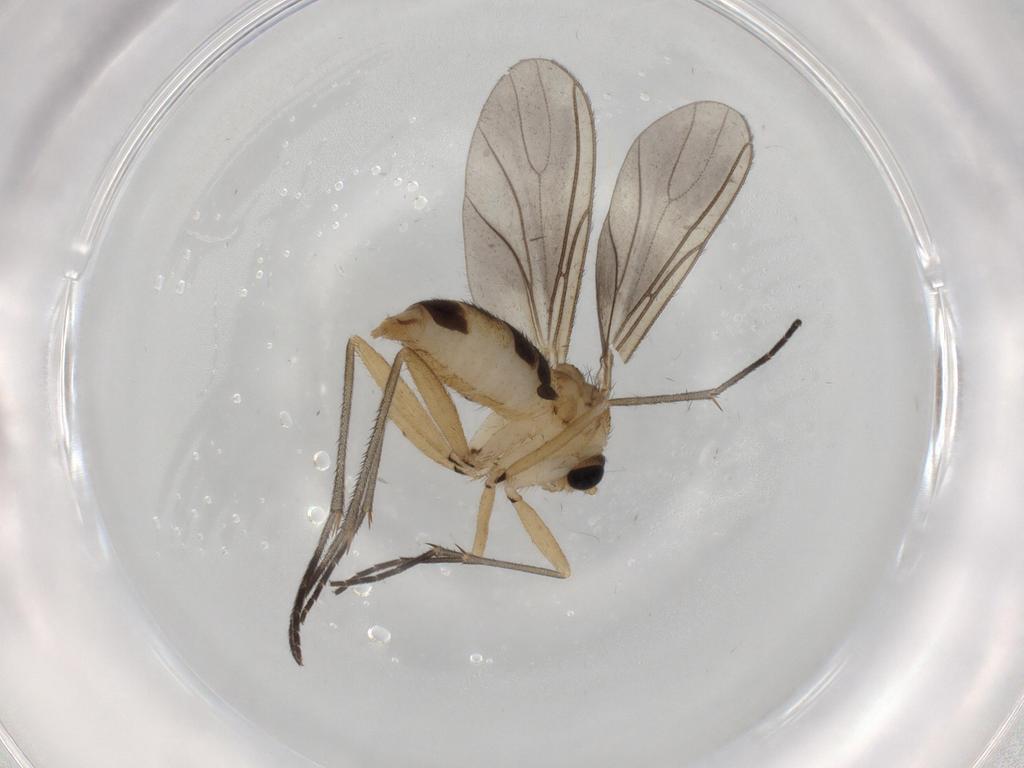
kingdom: Animalia
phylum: Arthropoda
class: Insecta
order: Diptera
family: Sciaridae
